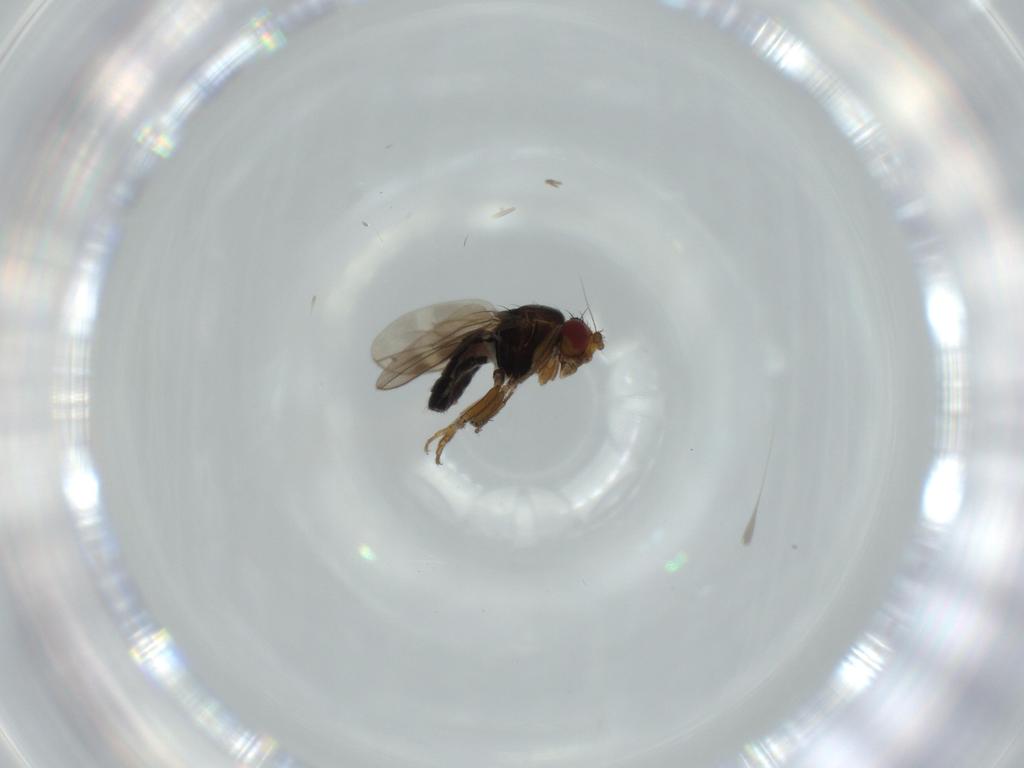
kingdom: Animalia
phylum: Arthropoda
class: Insecta
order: Diptera
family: Sphaeroceridae
